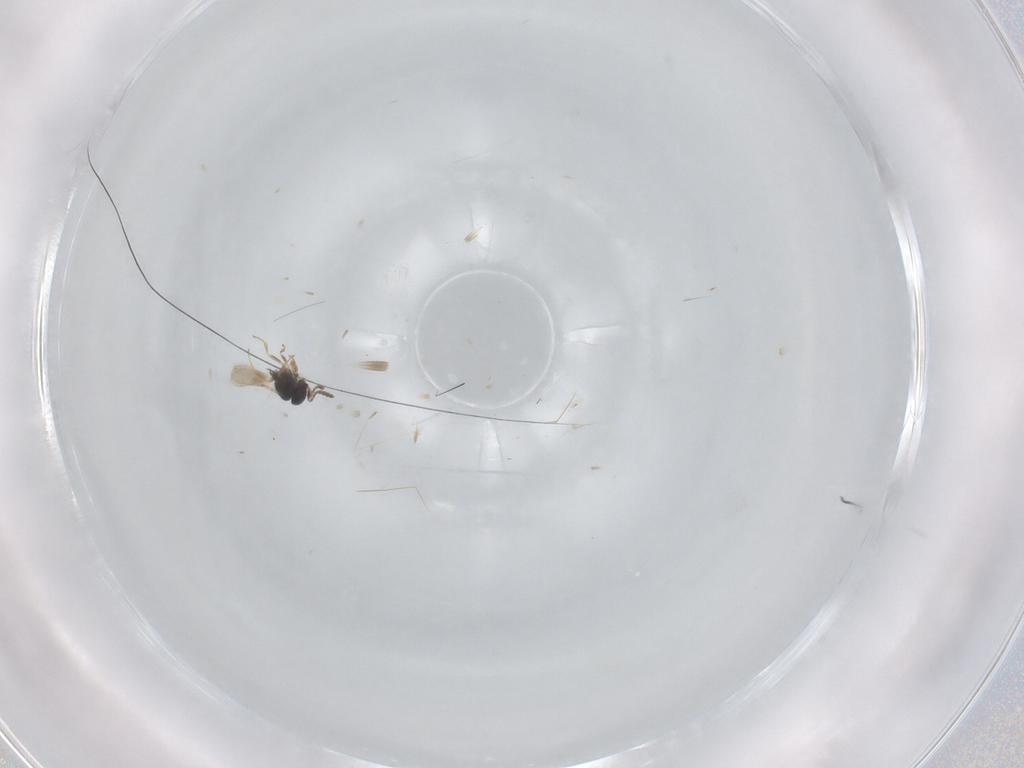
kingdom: Animalia
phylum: Arthropoda
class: Insecta
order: Hymenoptera
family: Scelionidae
